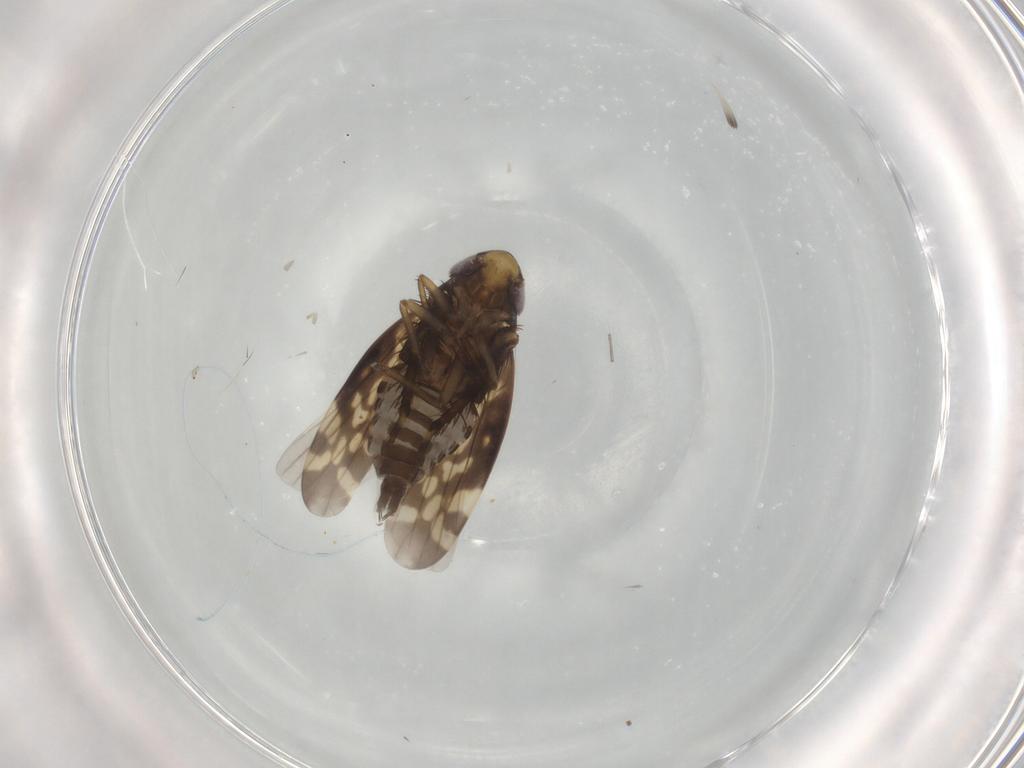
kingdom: Animalia
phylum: Arthropoda
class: Insecta
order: Hemiptera
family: Cicadellidae
